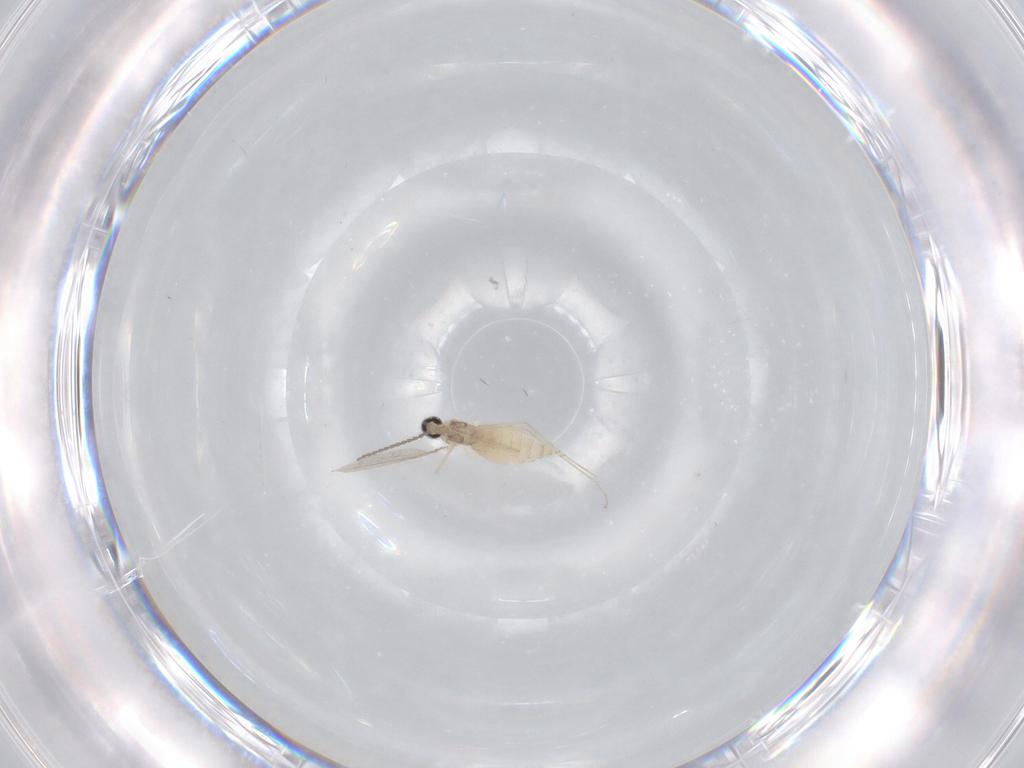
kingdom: Animalia
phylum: Arthropoda
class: Insecta
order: Diptera
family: Cecidomyiidae
